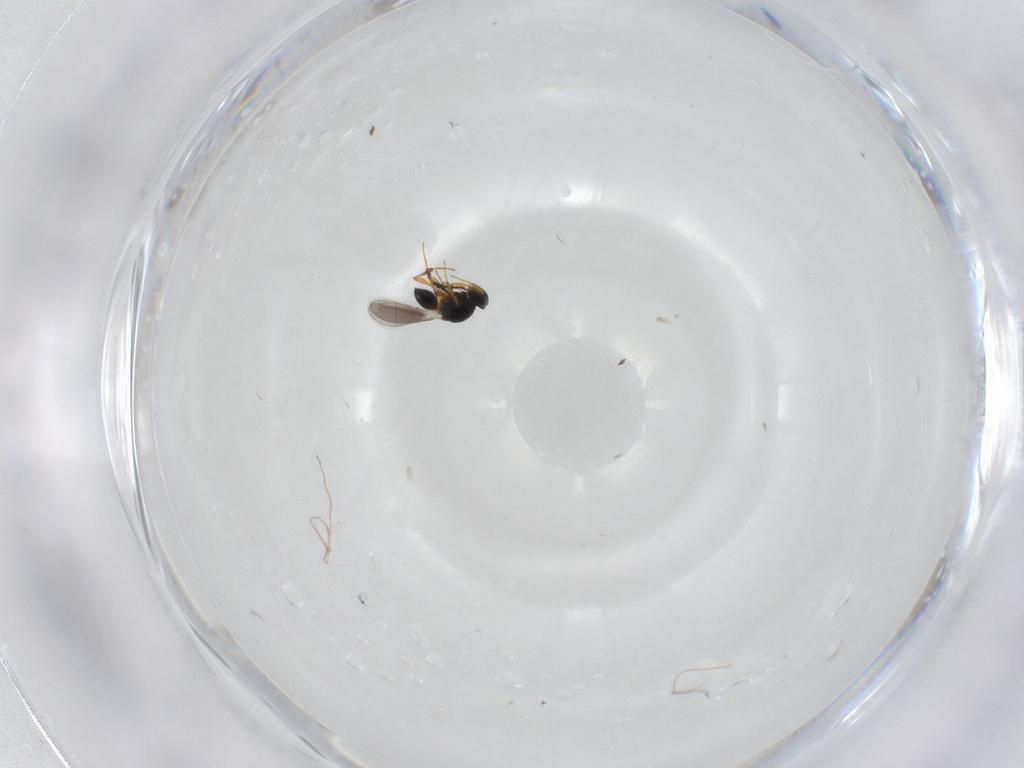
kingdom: Animalia
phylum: Arthropoda
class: Insecta
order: Hymenoptera
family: Platygastridae
